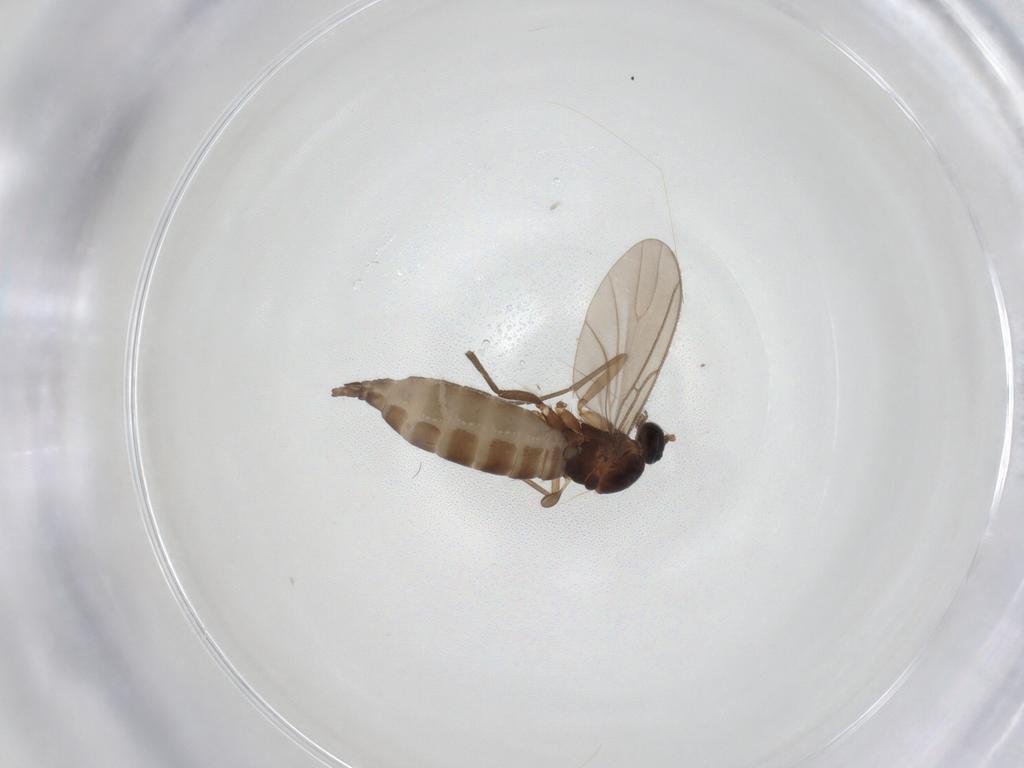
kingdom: Animalia
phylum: Arthropoda
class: Insecta
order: Diptera
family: Sciaridae
